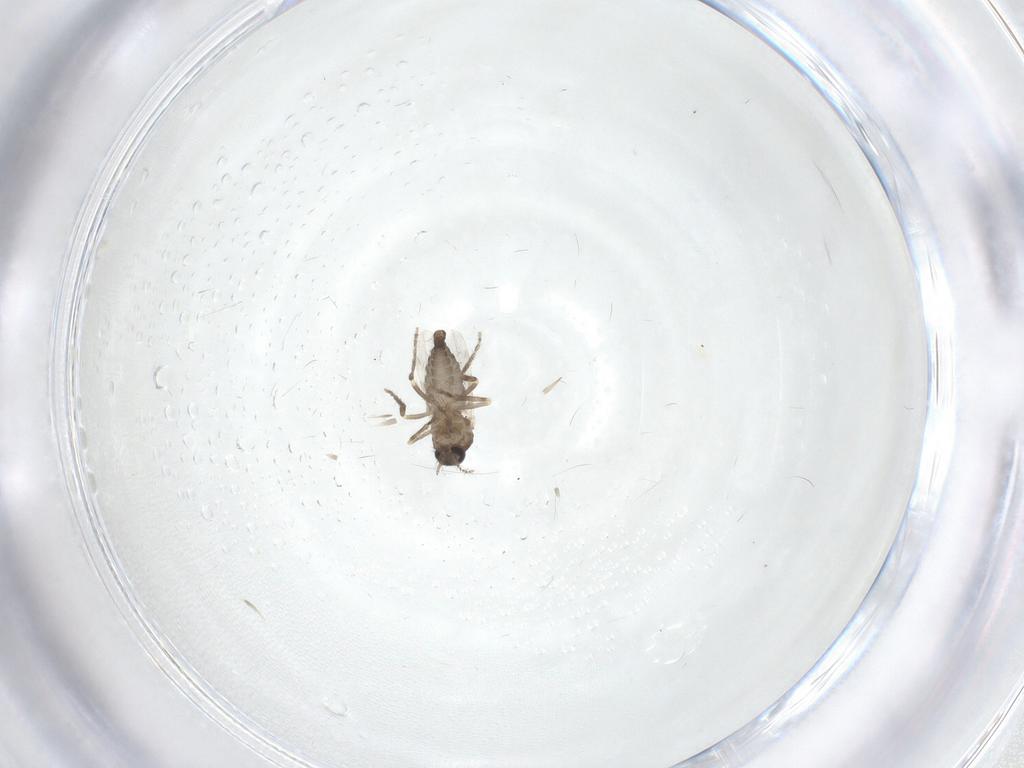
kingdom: Animalia
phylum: Arthropoda
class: Insecta
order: Diptera
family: Ceratopogonidae
